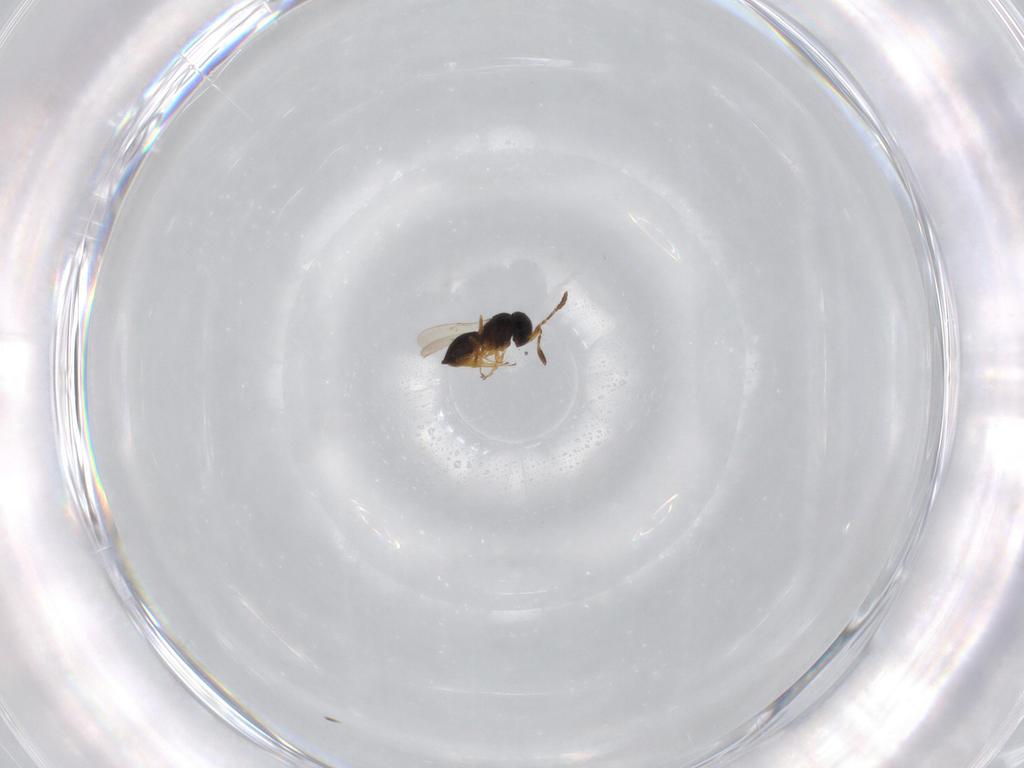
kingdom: Animalia
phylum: Arthropoda
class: Insecta
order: Hymenoptera
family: Scelionidae
